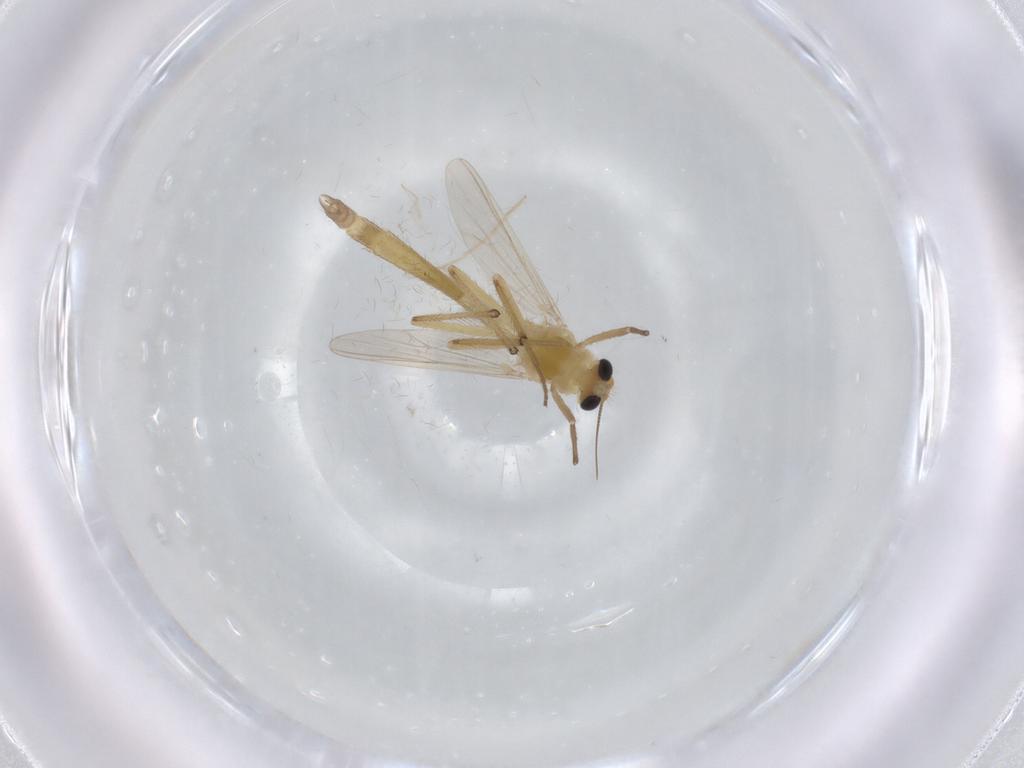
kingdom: Animalia
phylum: Arthropoda
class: Insecta
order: Diptera
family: Chironomidae
